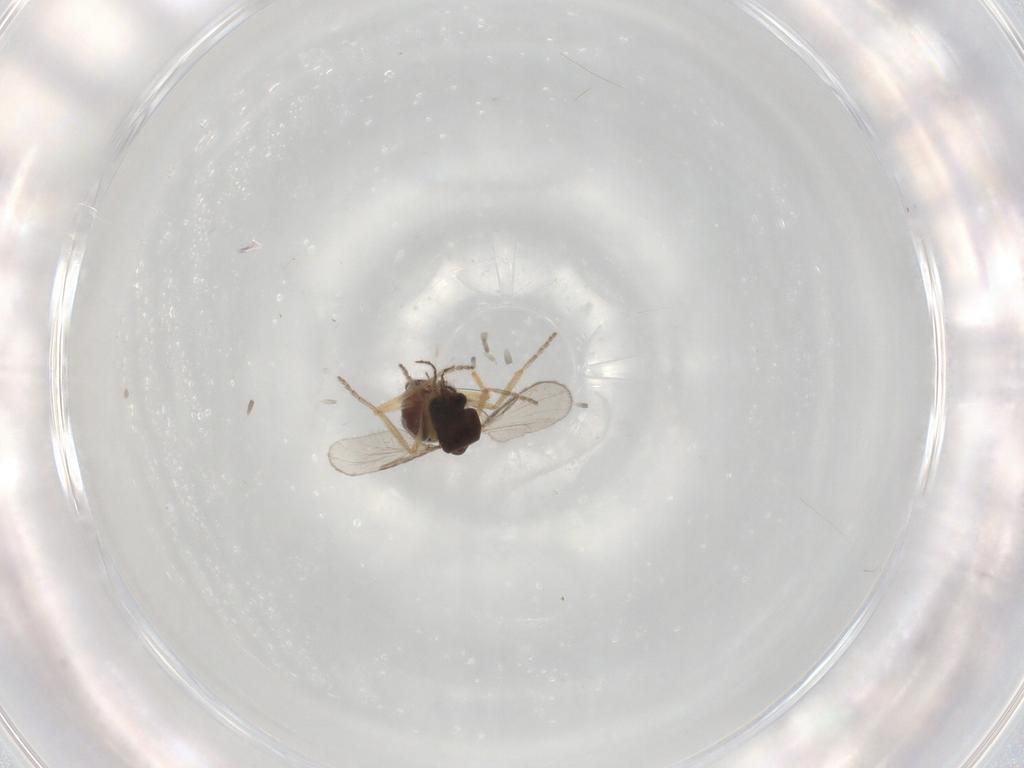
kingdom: Animalia
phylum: Arthropoda
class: Insecta
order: Diptera
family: Ceratopogonidae
